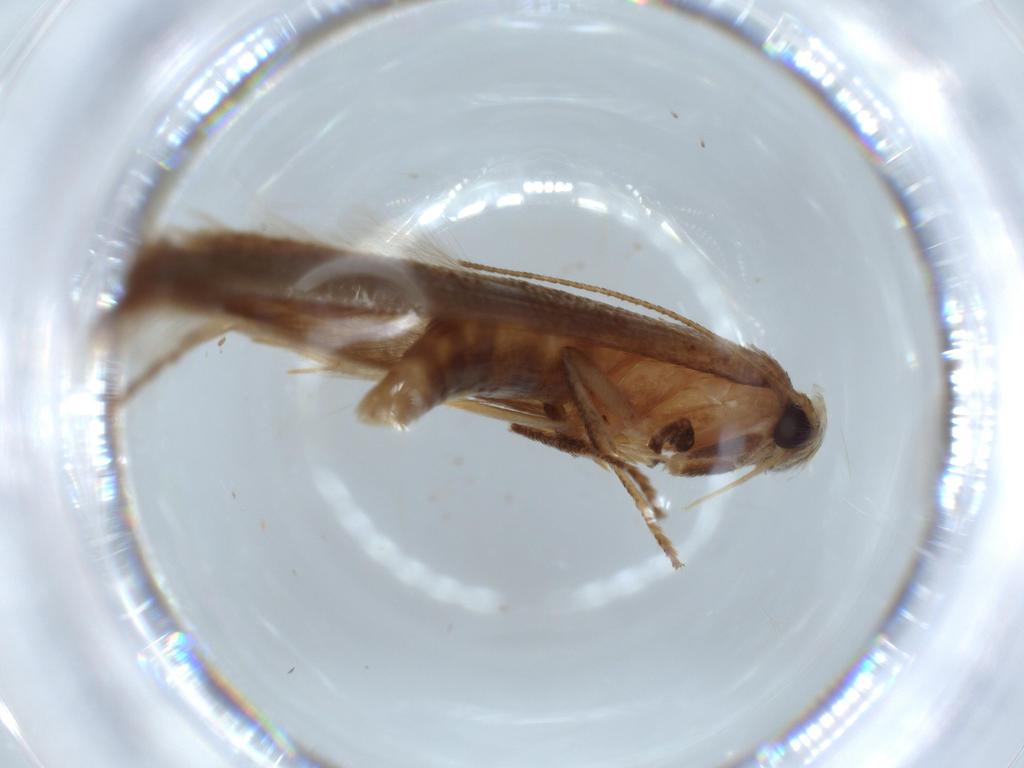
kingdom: Animalia
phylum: Arthropoda
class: Insecta
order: Lepidoptera
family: Stathmopodidae
